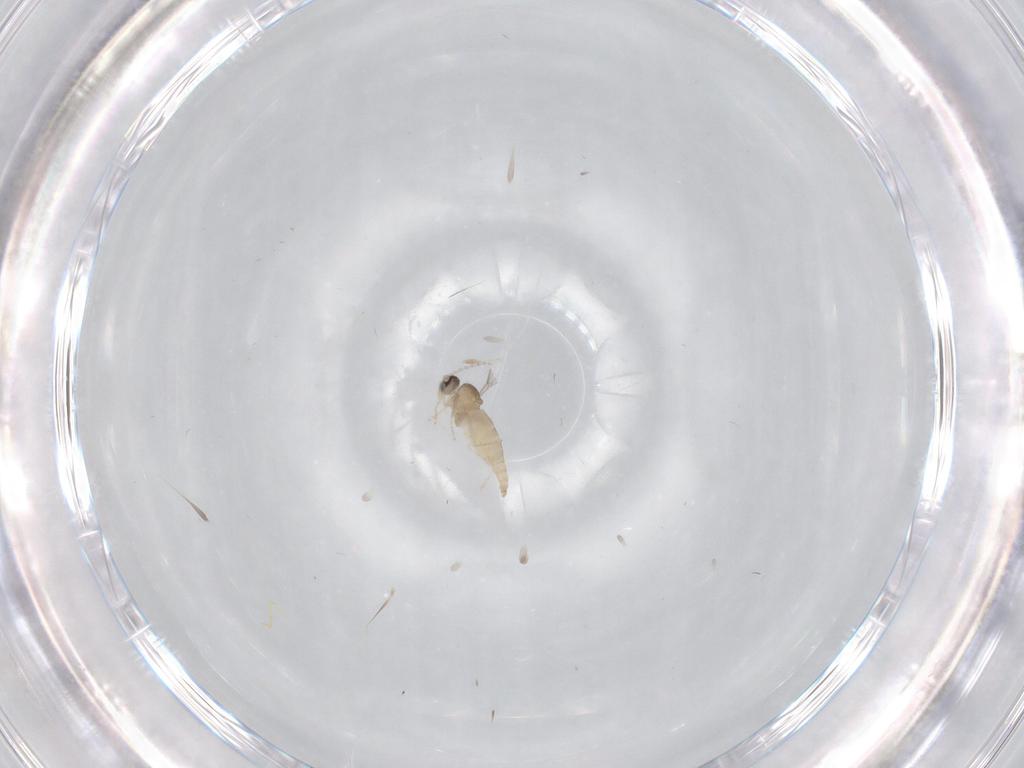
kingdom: Animalia
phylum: Arthropoda
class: Insecta
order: Diptera
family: Cecidomyiidae
